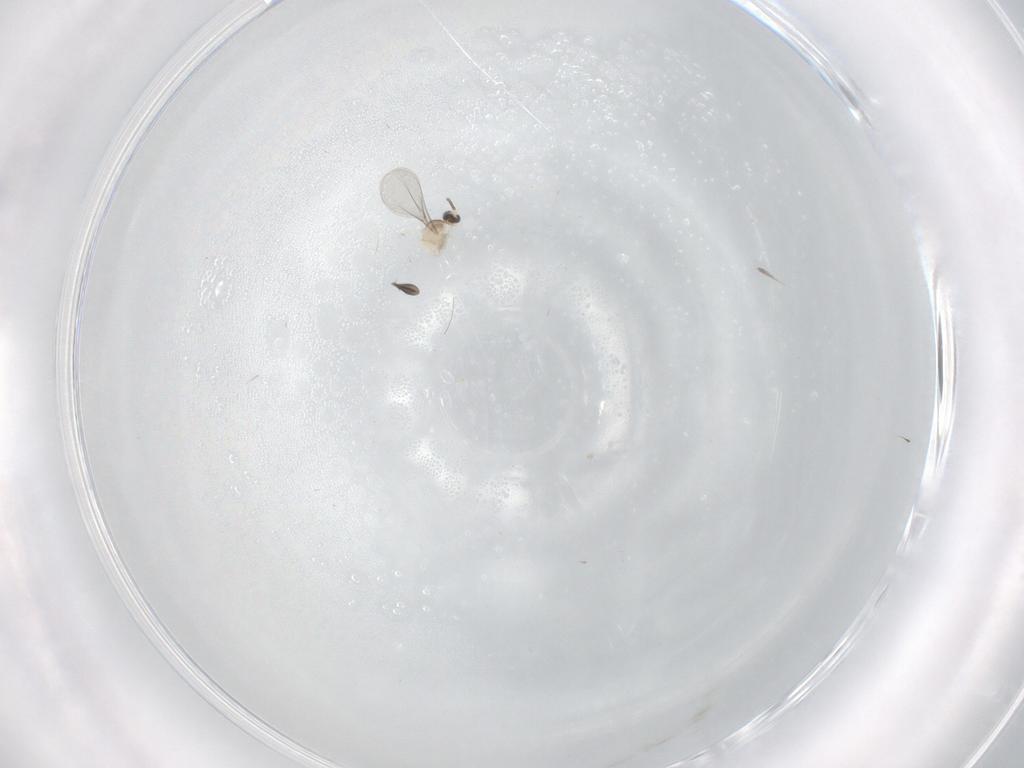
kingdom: Animalia
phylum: Arthropoda
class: Insecta
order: Diptera
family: Cecidomyiidae
